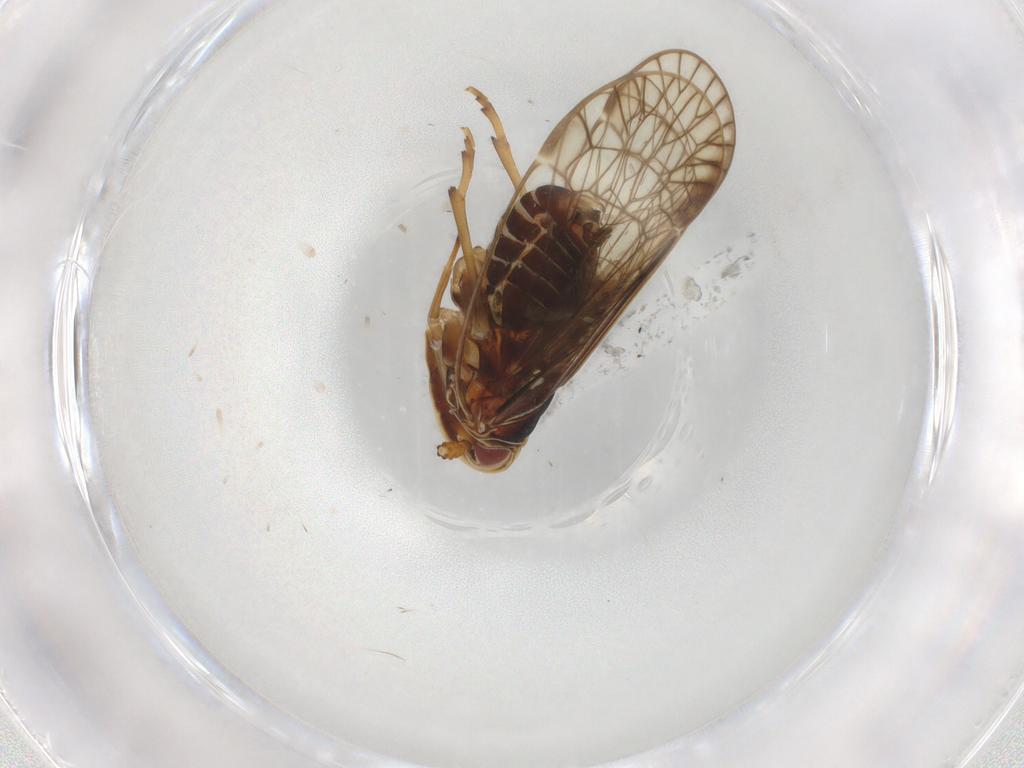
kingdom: Animalia
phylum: Arthropoda
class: Insecta
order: Hemiptera
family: Kinnaridae
